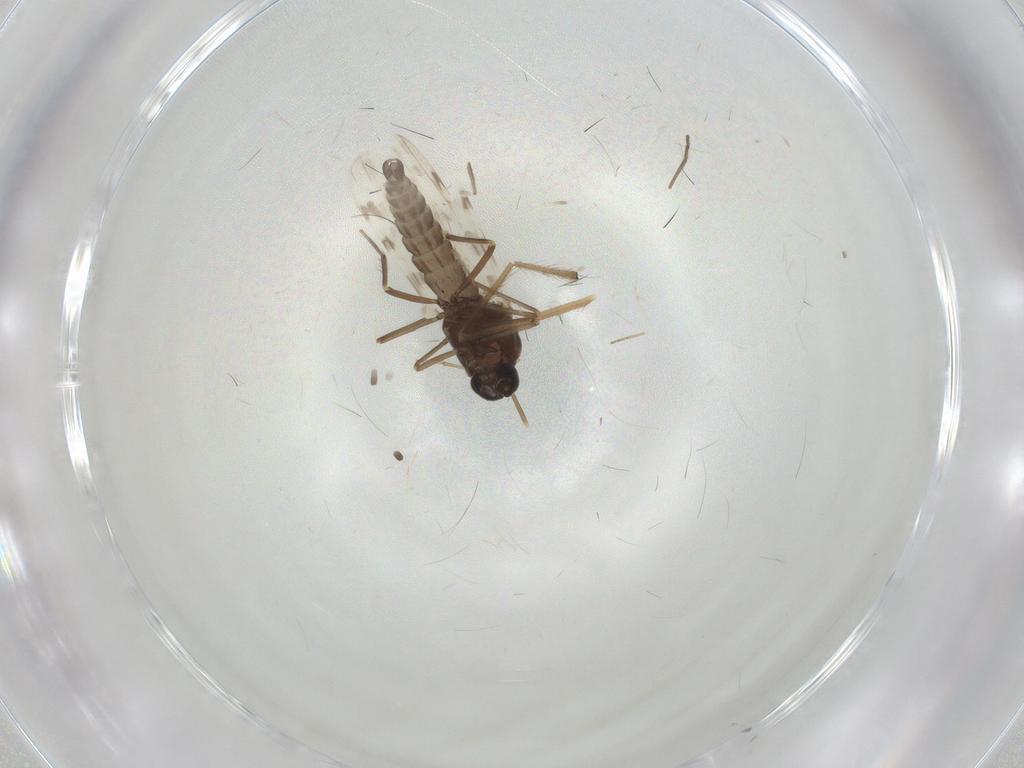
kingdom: Animalia
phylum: Arthropoda
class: Insecta
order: Diptera
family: Ceratopogonidae
